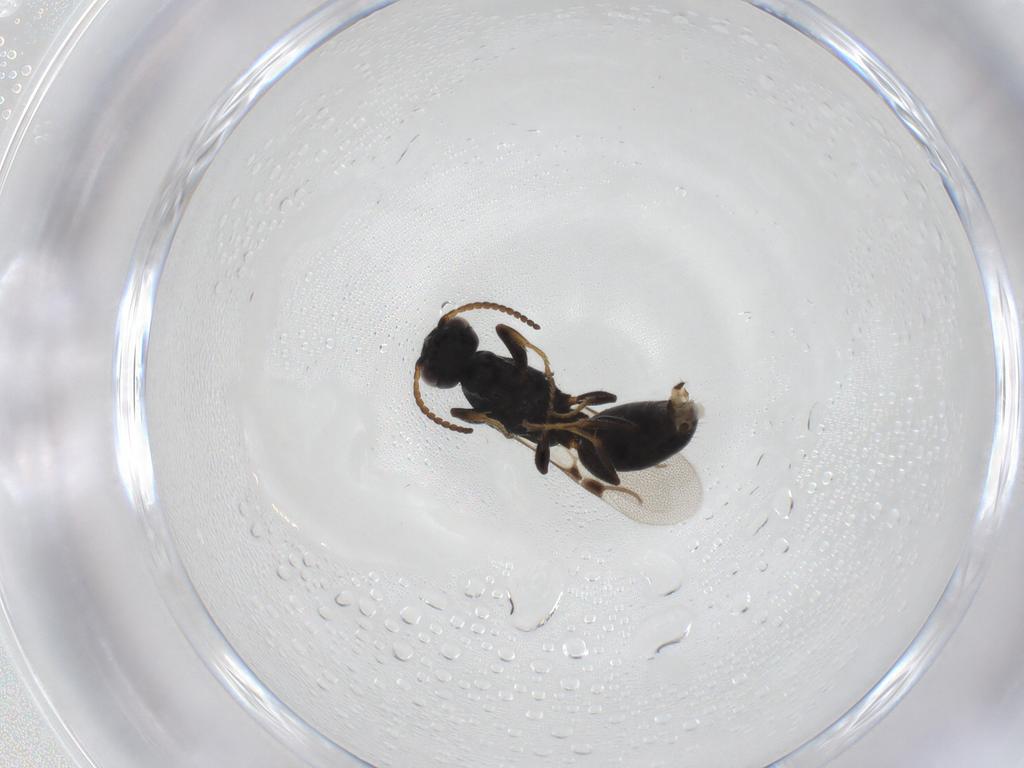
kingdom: Animalia
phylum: Arthropoda
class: Insecta
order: Hymenoptera
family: Bethylidae
